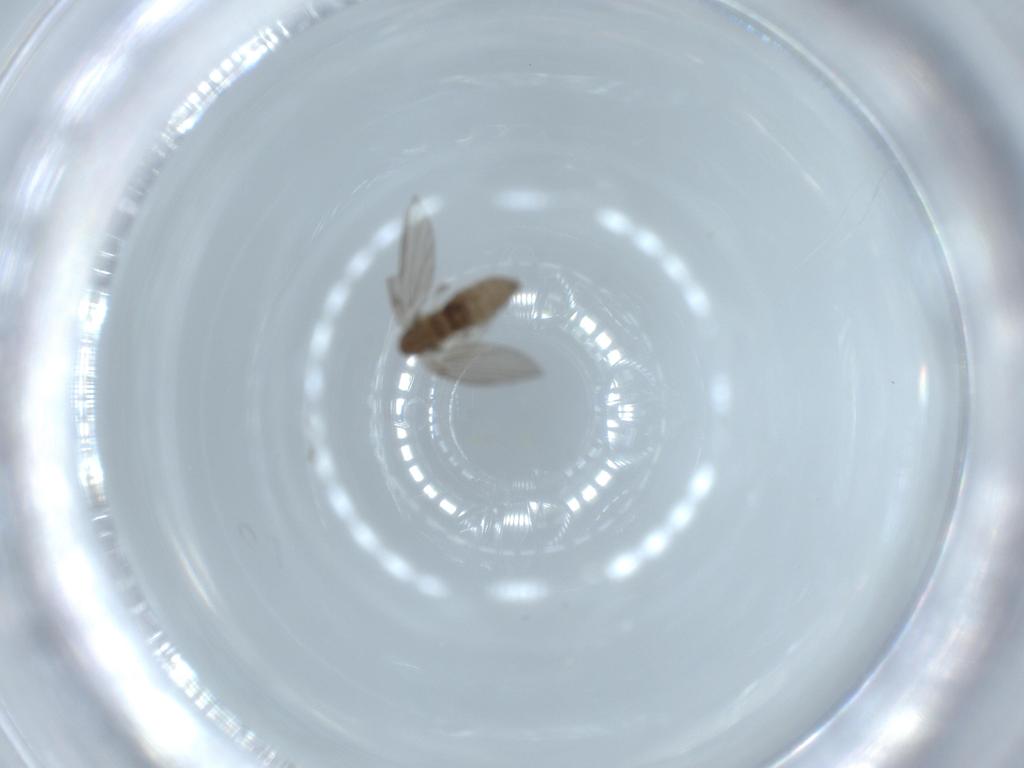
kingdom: Animalia
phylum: Arthropoda
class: Insecta
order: Diptera
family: Psychodidae
